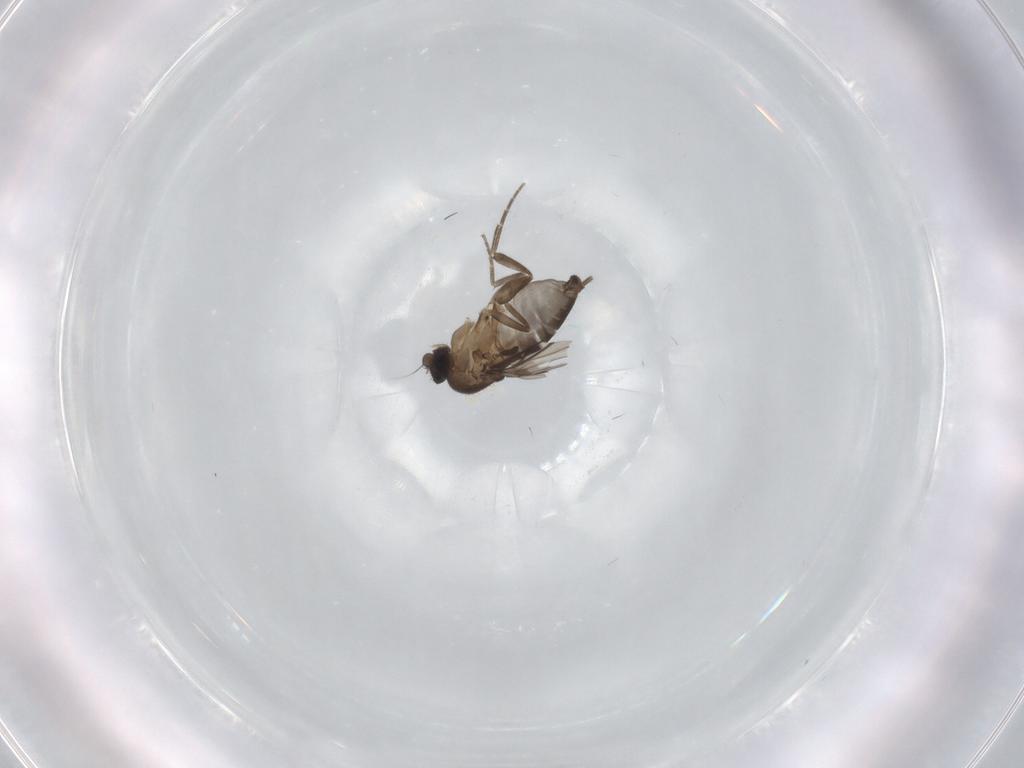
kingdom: Animalia
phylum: Arthropoda
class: Insecta
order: Diptera
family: Phoridae
